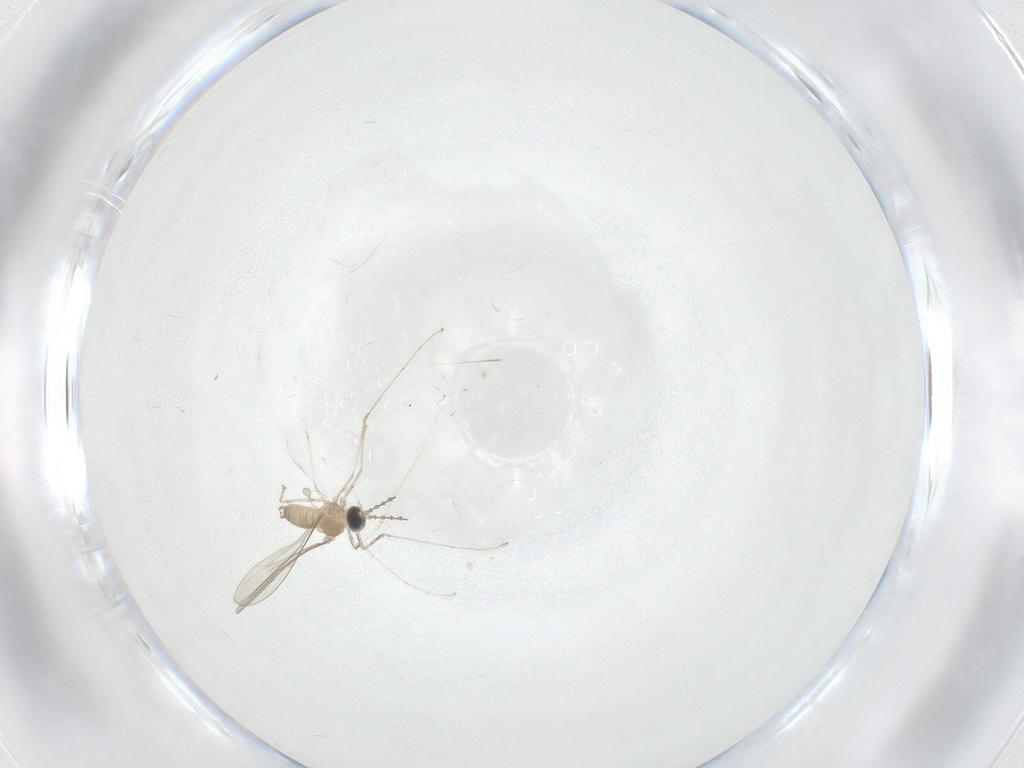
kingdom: Animalia
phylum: Arthropoda
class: Insecta
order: Diptera
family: Cecidomyiidae
